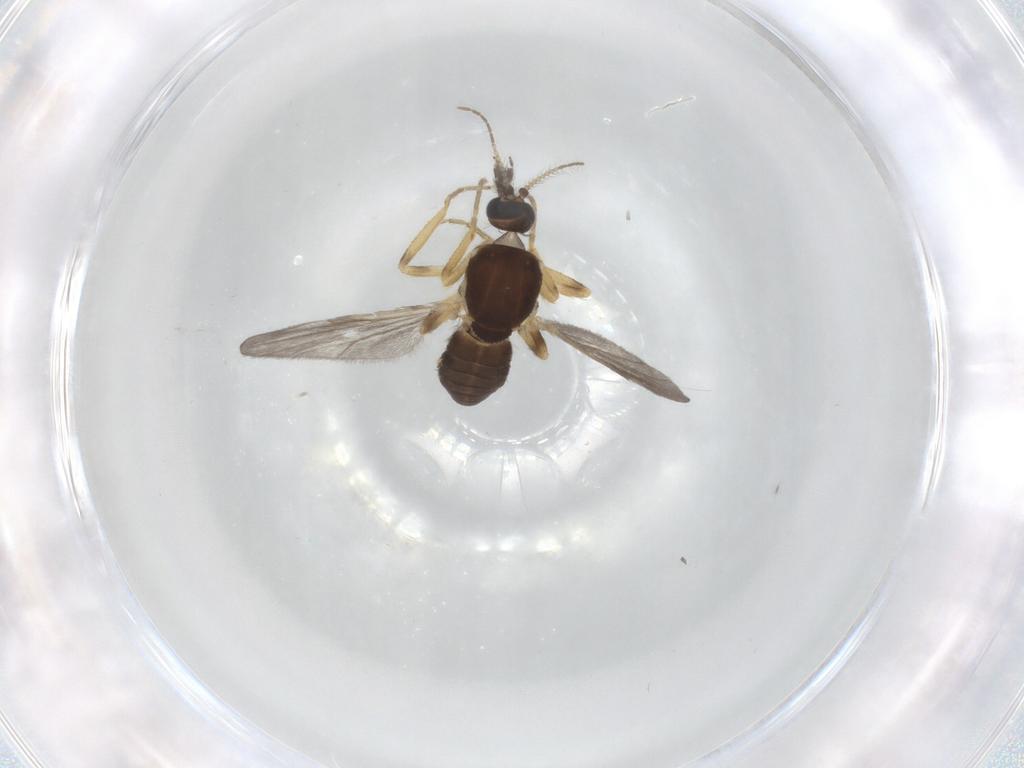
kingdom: Animalia
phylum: Arthropoda
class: Insecta
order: Diptera
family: Ceratopogonidae
